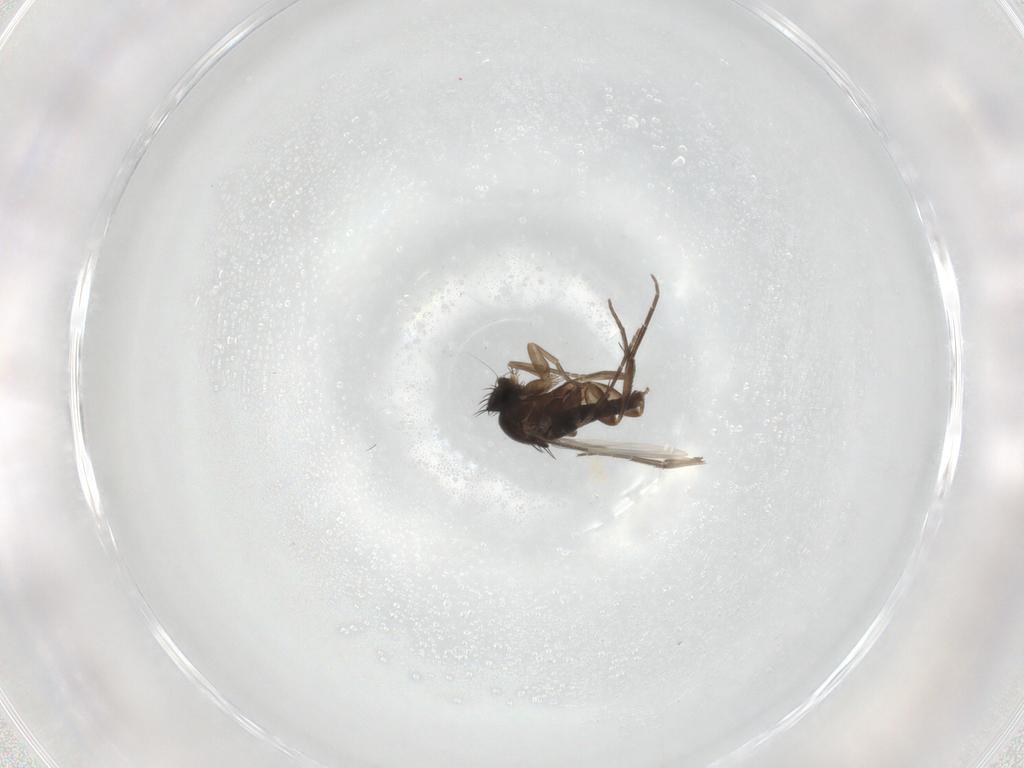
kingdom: Animalia
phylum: Arthropoda
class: Insecta
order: Diptera
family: Phoridae
